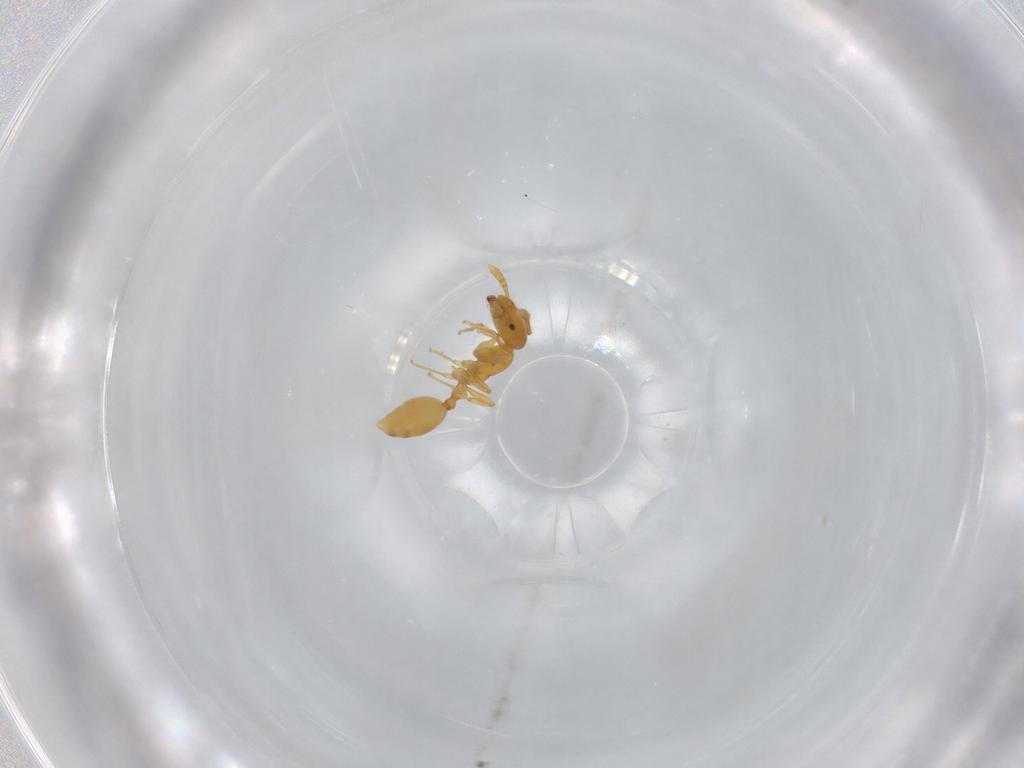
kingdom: Animalia
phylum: Arthropoda
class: Insecta
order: Hymenoptera
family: Formicidae
